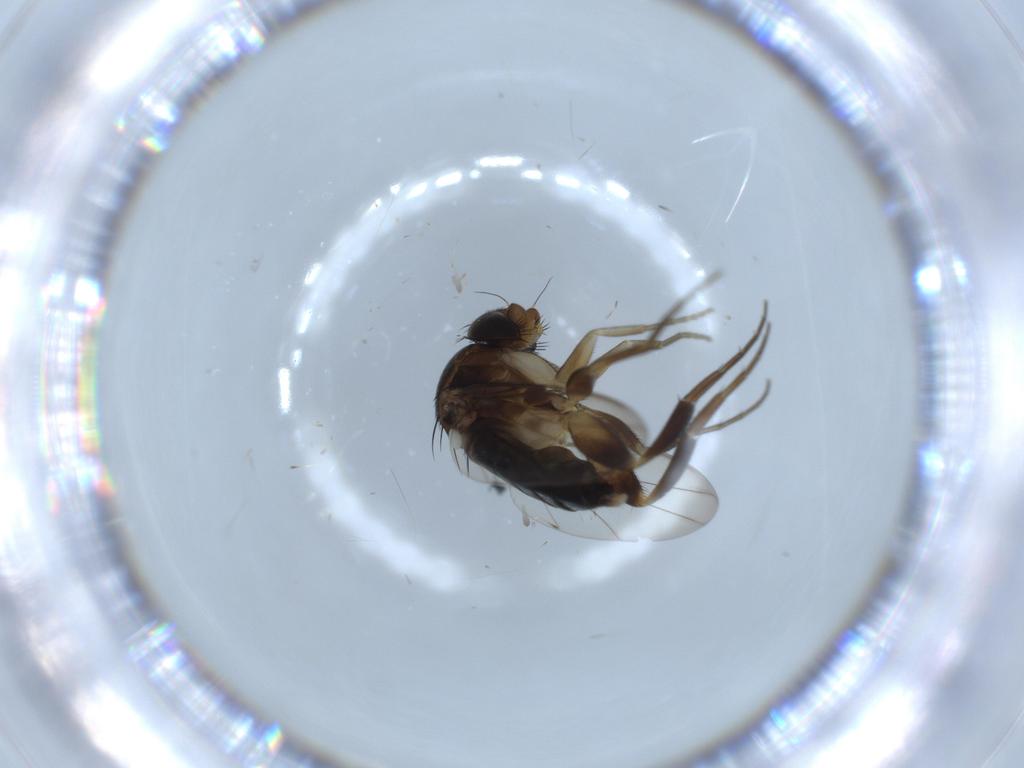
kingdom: Animalia
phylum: Arthropoda
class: Insecta
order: Diptera
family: Phoridae
